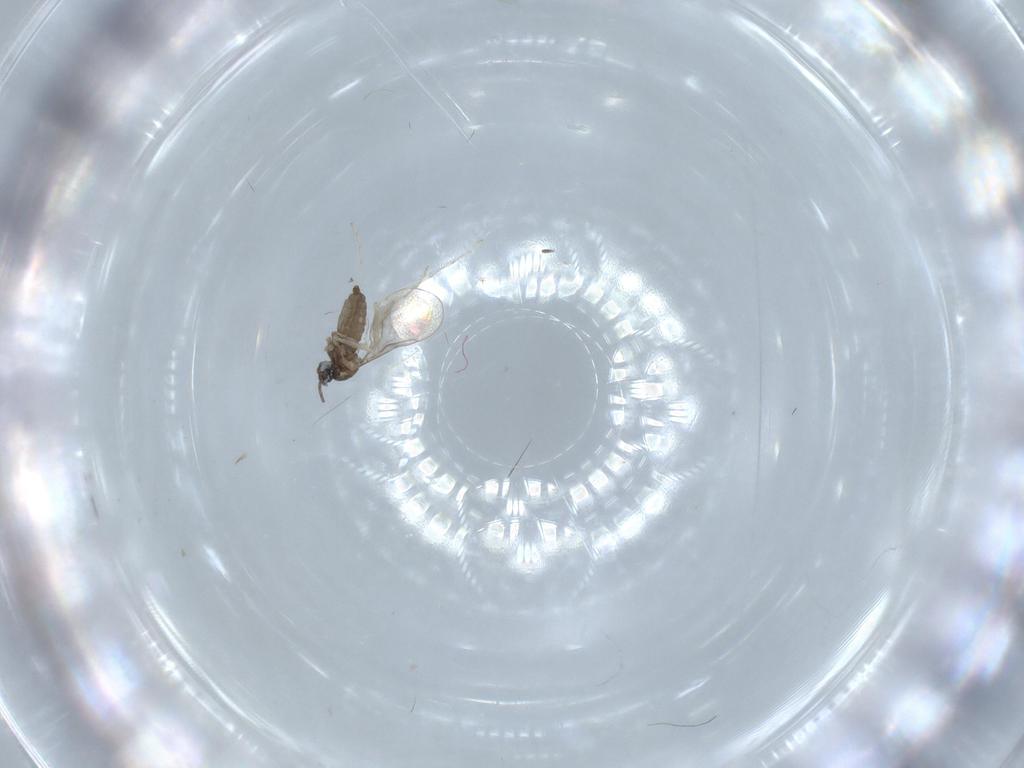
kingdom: Animalia
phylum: Arthropoda
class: Insecta
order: Diptera
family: Cecidomyiidae
